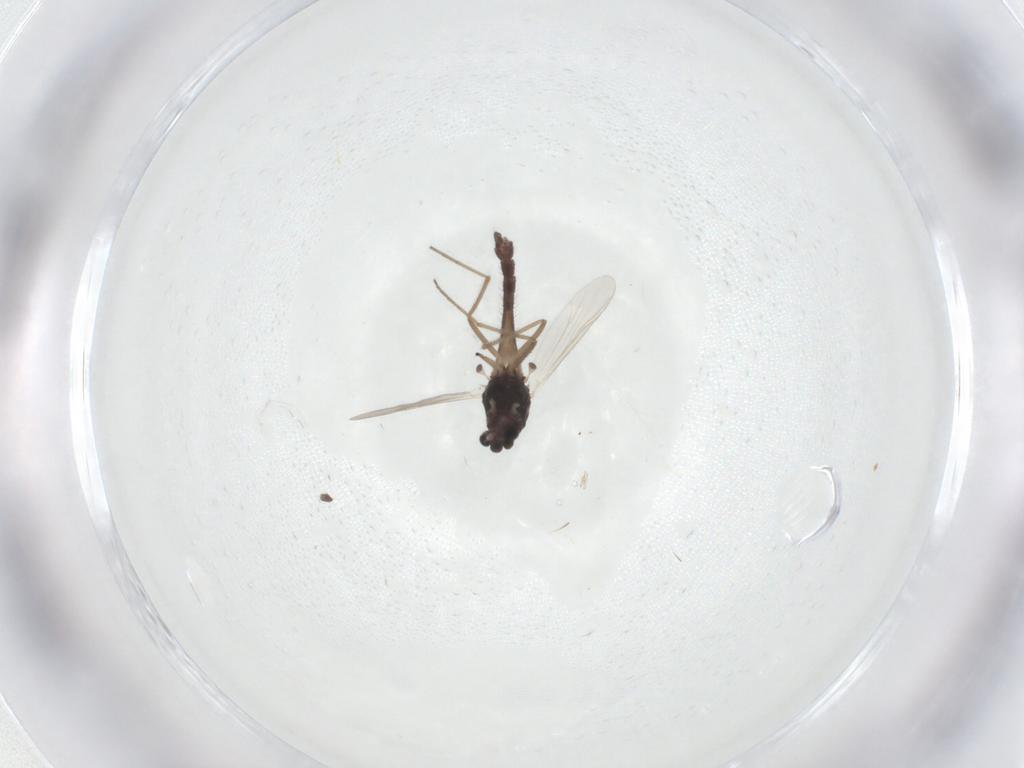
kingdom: Animalia
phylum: Arthropoda
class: Insecta
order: Diptera
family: Chironomidae
